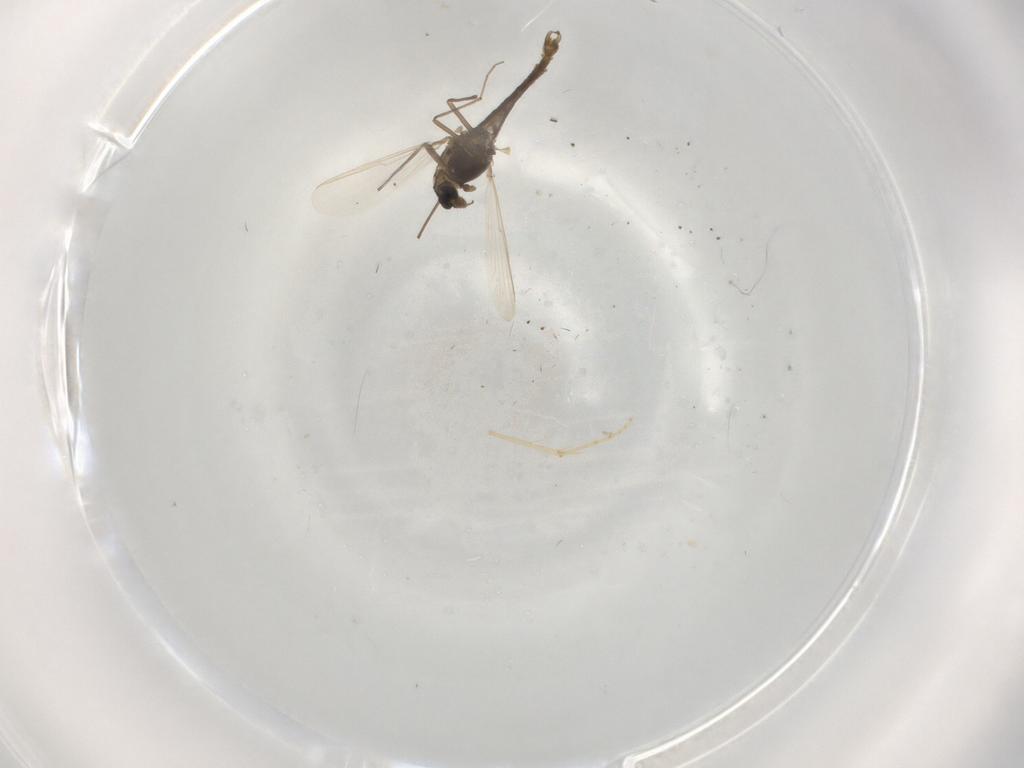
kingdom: Animalia
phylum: Arthropoda
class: Insecta
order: Diptera
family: Chironomidae
